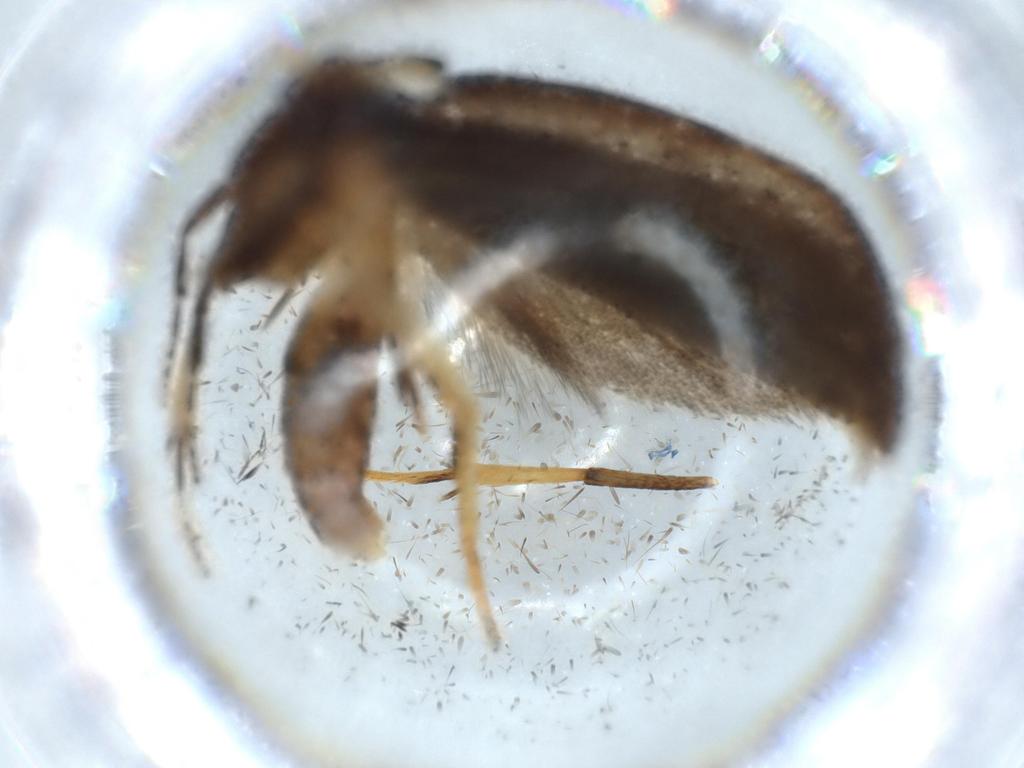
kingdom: Animalia
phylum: Arthropoda
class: Insecta
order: Lepidoptera
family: Lecithoceridae
